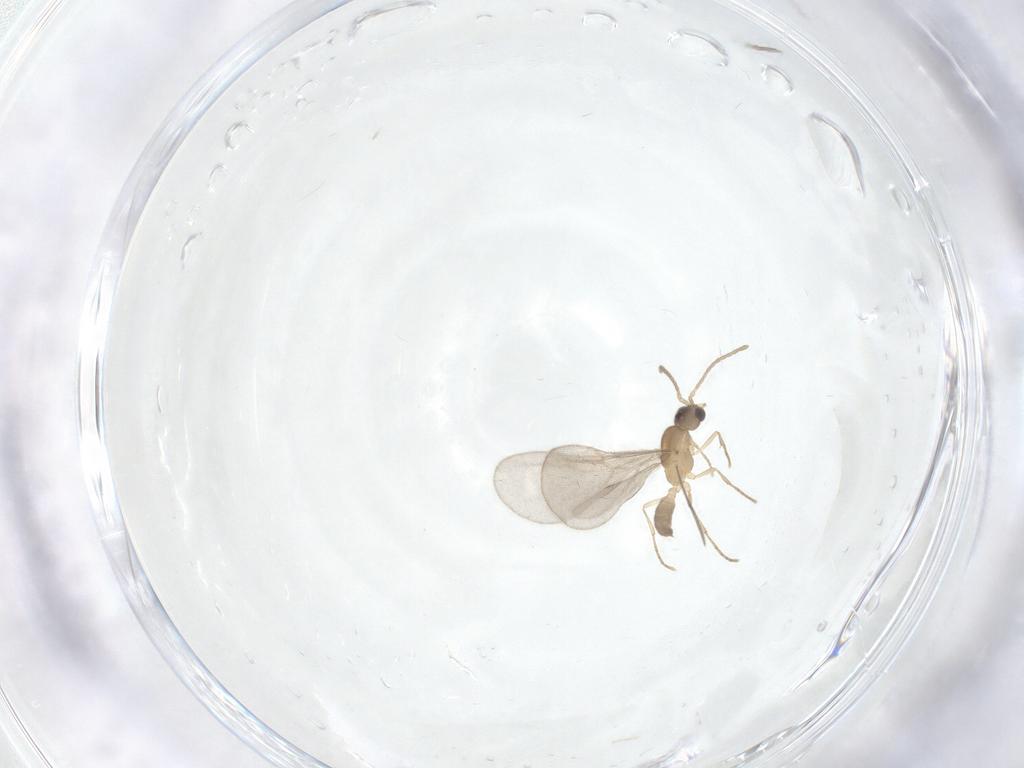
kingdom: Animalia
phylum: Arthropoda
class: Insecta
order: Hymenoptera
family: Formicidae
